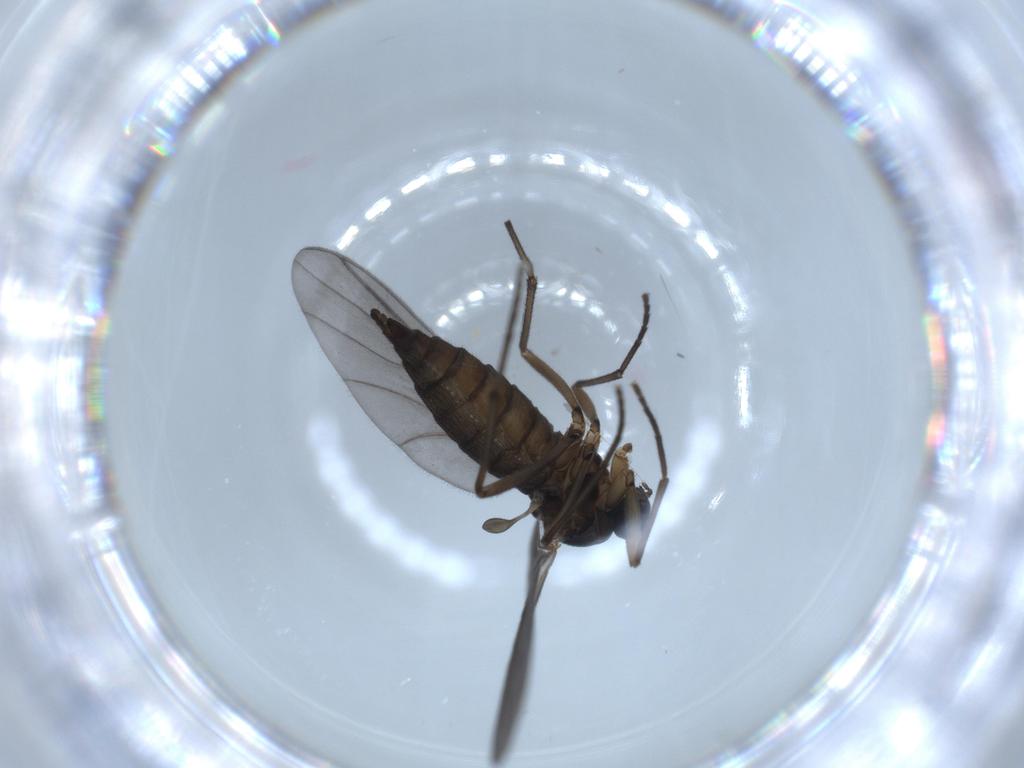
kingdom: Animalia
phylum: Arthropoda
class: Insecta
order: Diptera
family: Sciaridae
